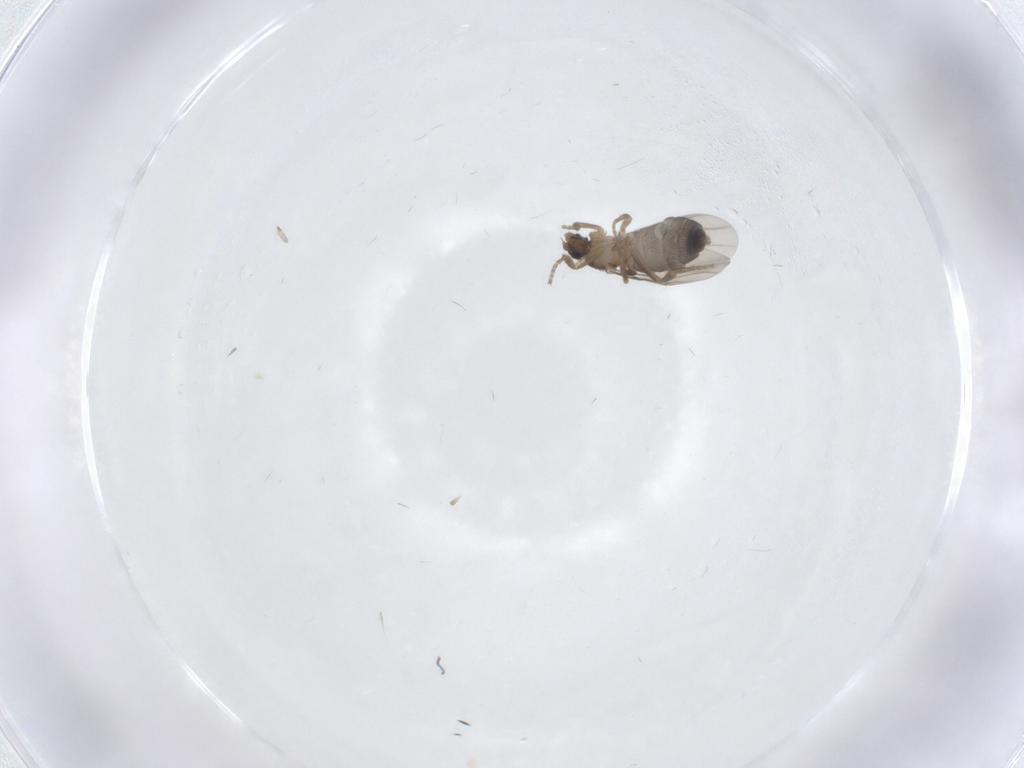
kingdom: Animalia
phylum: Arthropoda
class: Insecta
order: Diptera
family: Phoridae
